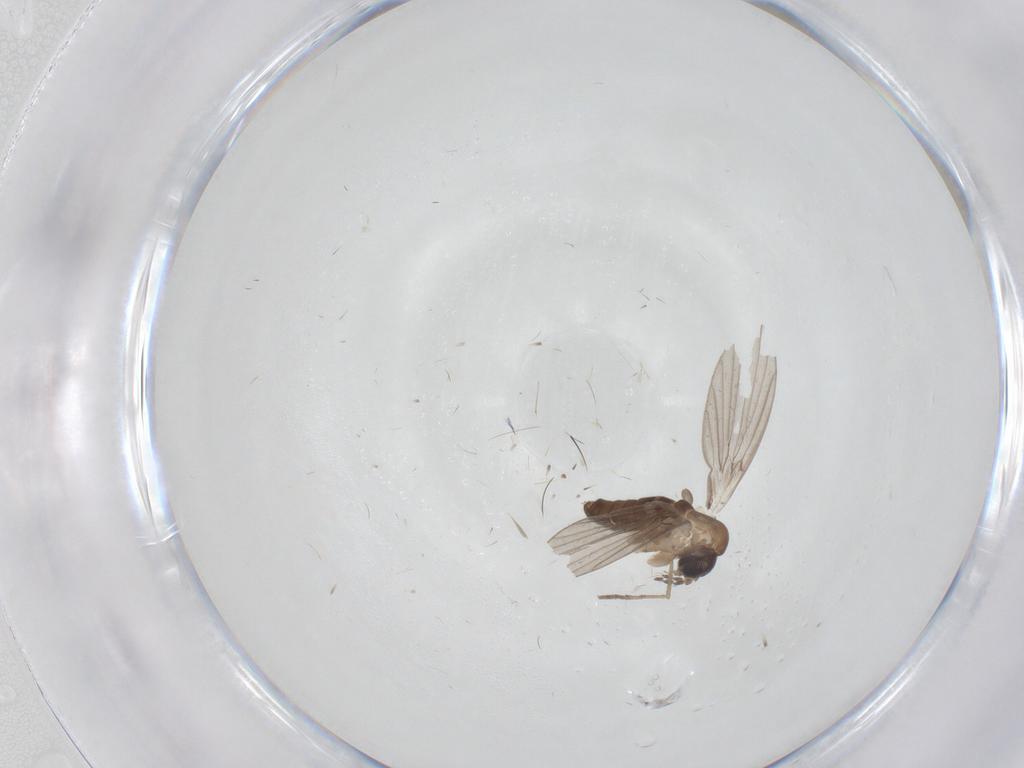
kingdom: Animalia
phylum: Arthropoda
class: Insecta
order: Diptera
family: Cecidomyiidae
